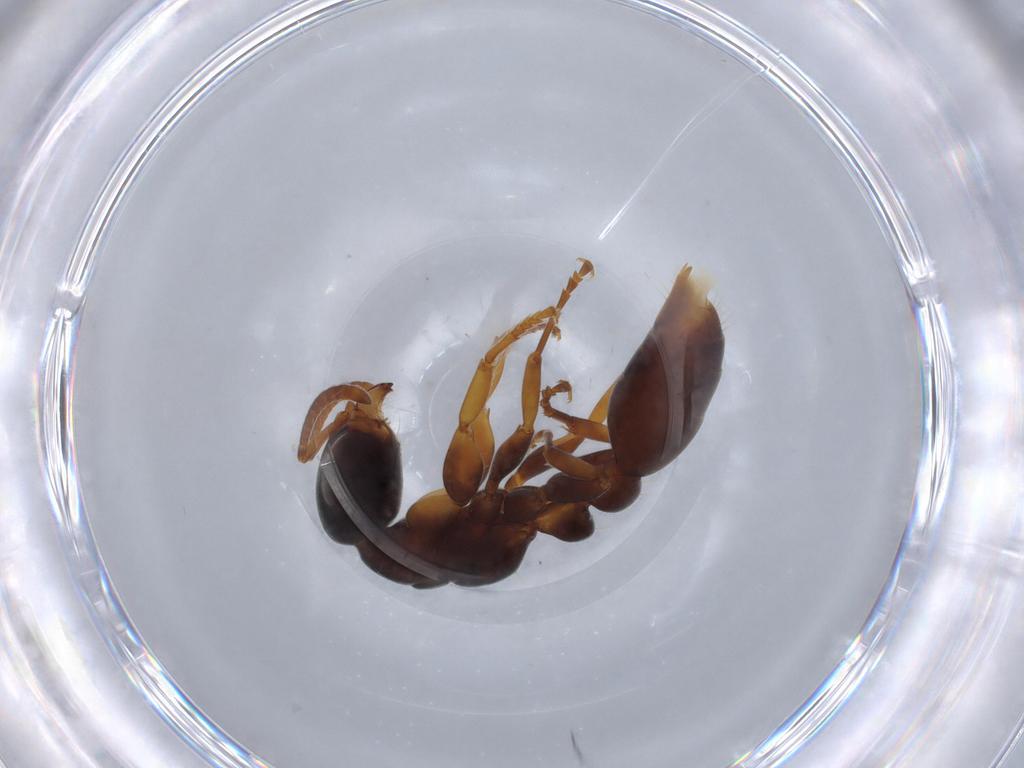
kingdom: Animalia
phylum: Arthropoda
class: Insecta
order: Hymenoptera
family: Formicidae
